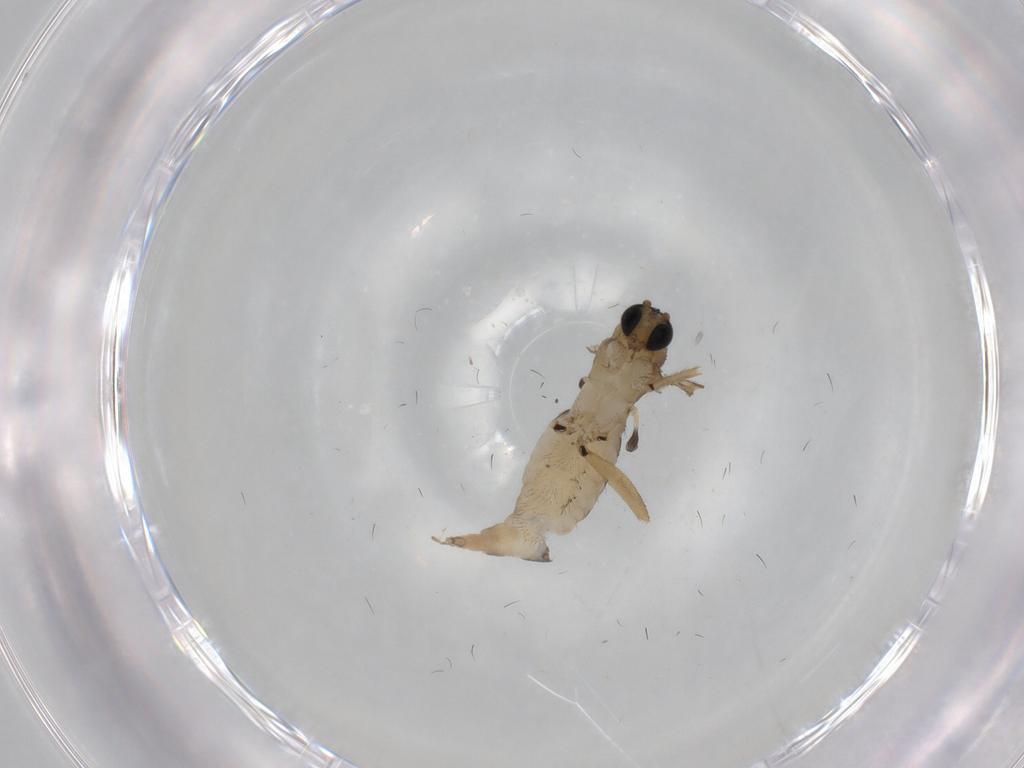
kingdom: Animalia
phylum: Arthropoda
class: Insecta
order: Diptera
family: Sciaridae
